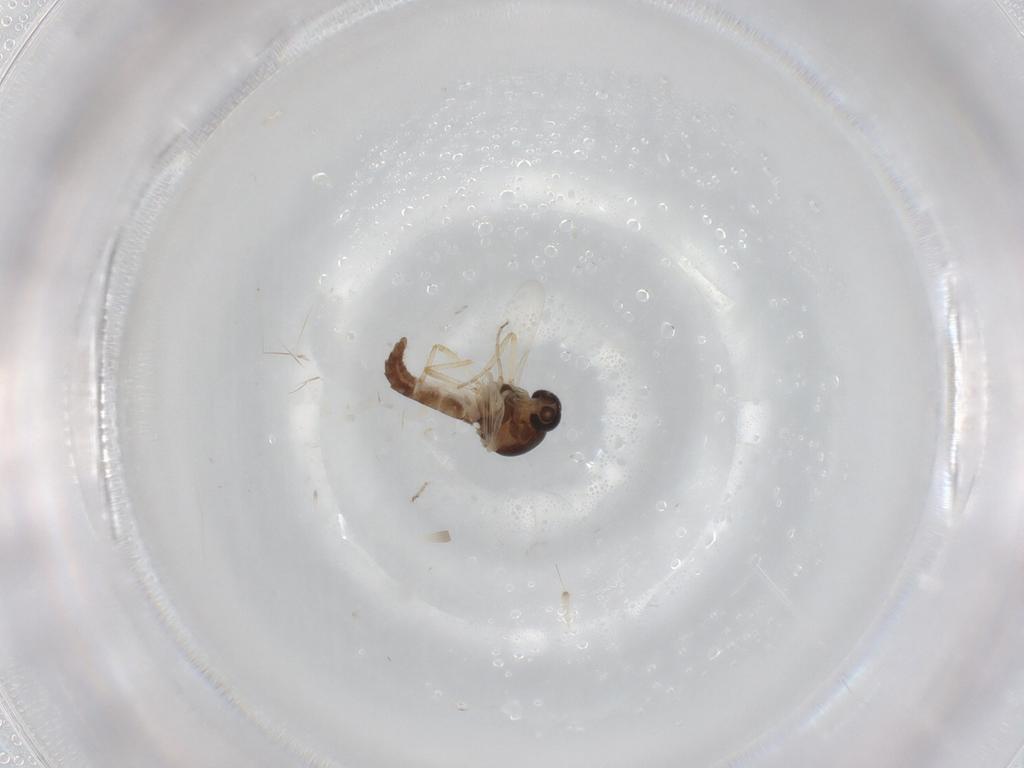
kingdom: Animalia
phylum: Arthropoda
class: Insecta
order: Diptera
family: Ceratopogonidae
